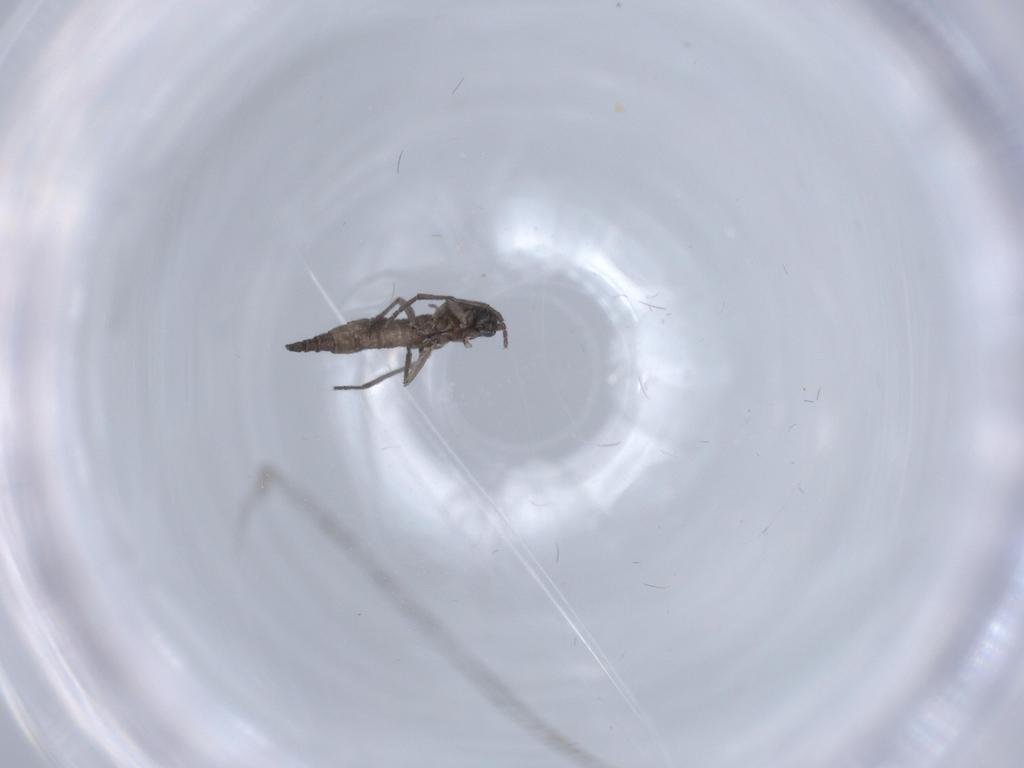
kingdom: Animalia
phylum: Arthropoda
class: Insecta
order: Diptera
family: Sciaridae
